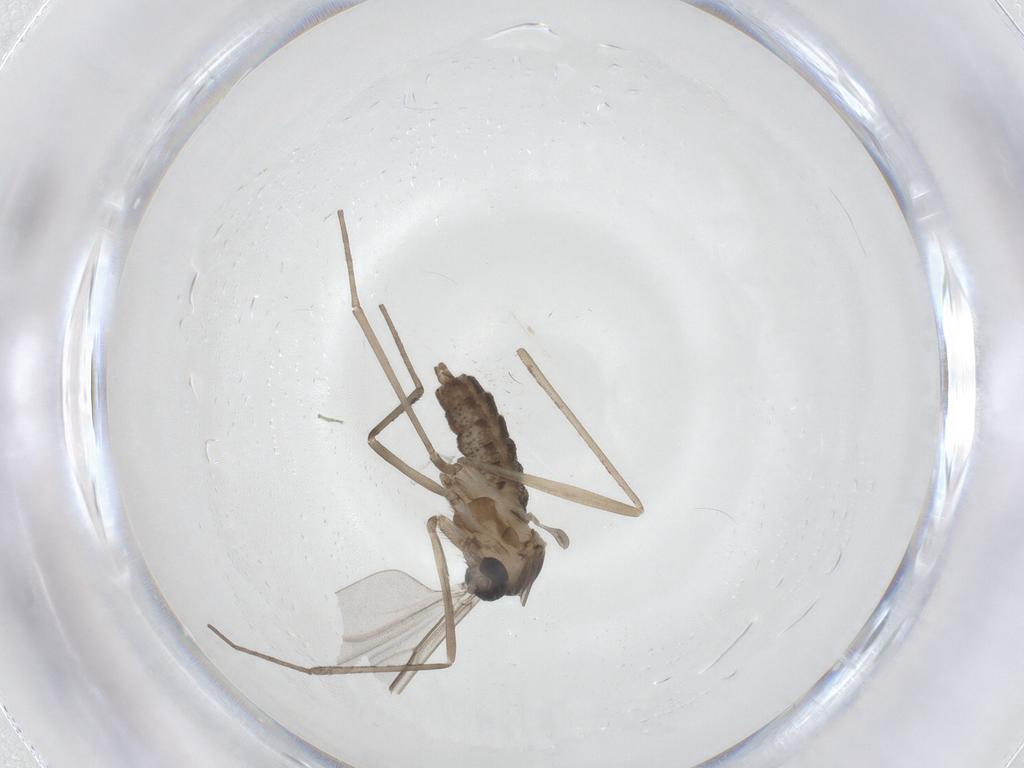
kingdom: Animalia
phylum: Arthropoda
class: Insecta
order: Diptera
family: Cecidomyiidae
